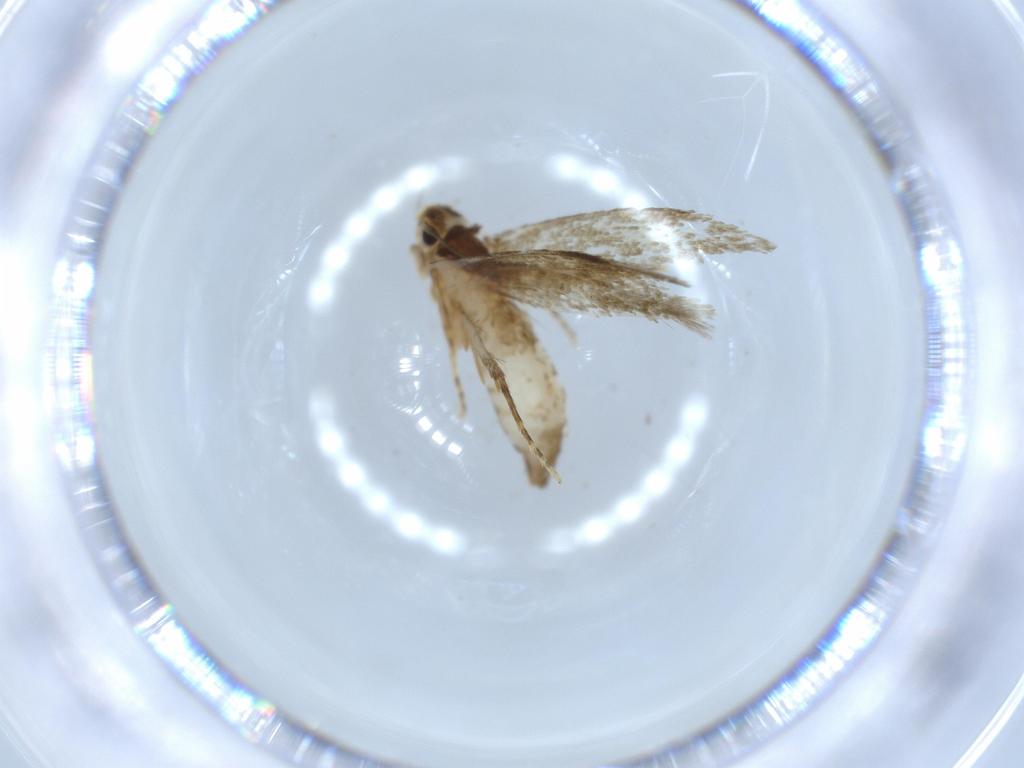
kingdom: Animalia
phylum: Arthropoda
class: Insecta
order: Lepidoptera
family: Tineidae
